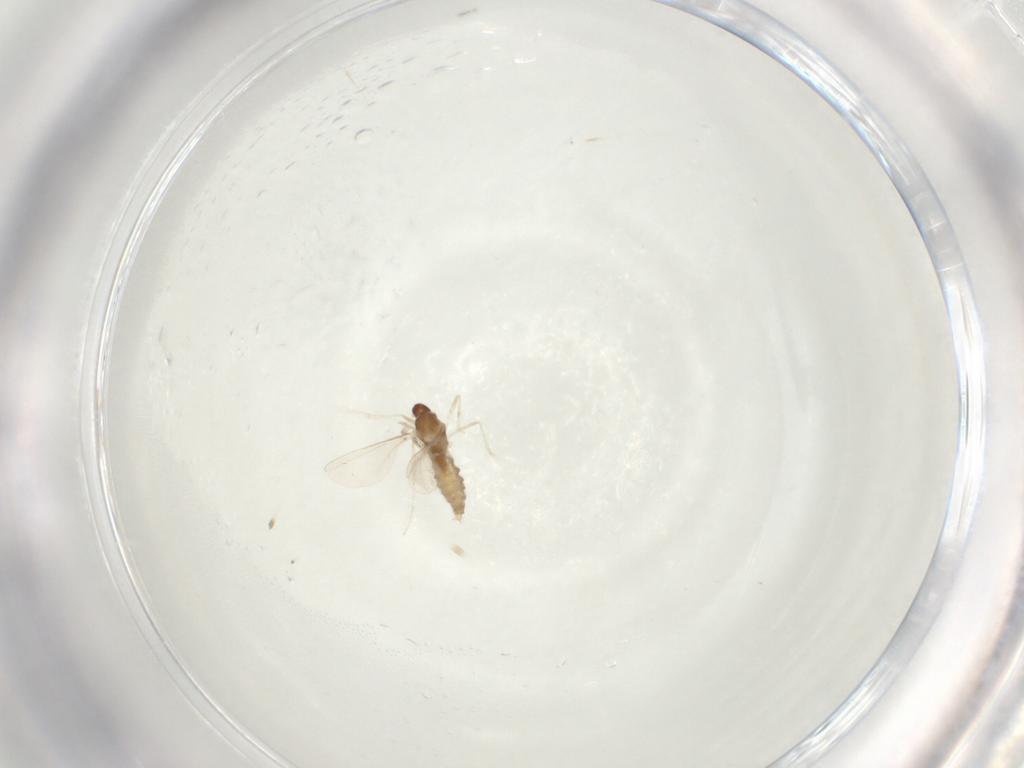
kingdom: Animalia
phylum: Arthropoda
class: Insecta
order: Diptera
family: Cecidomyiidae
